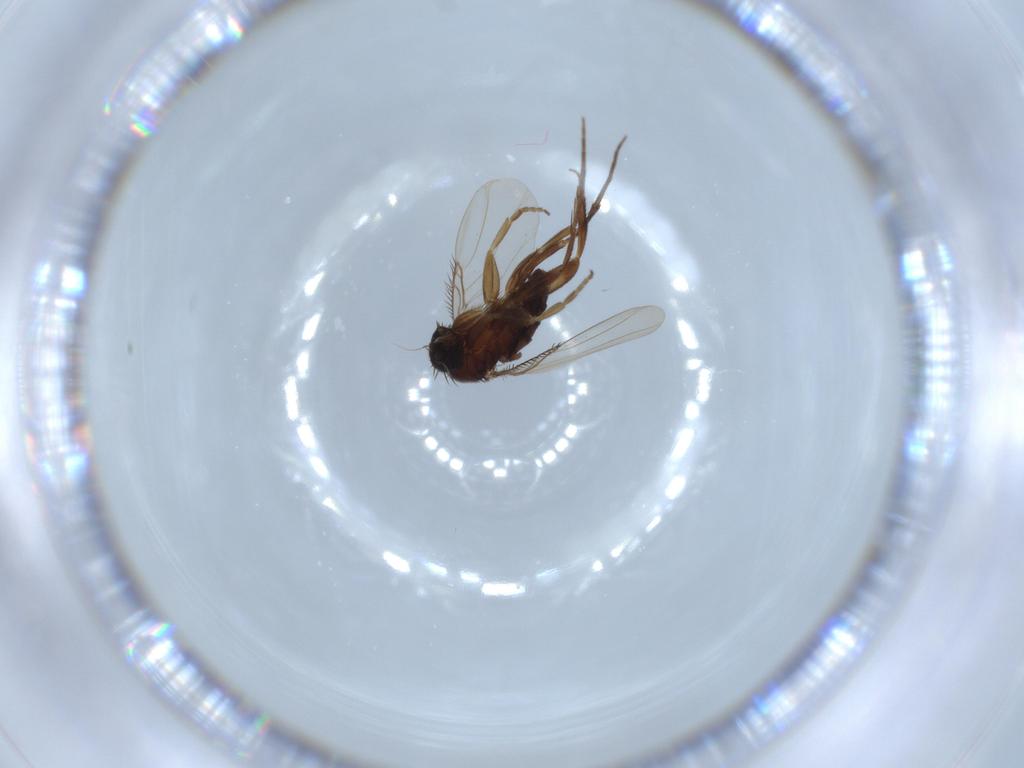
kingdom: Animalia
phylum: Arthropoda
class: Insecta
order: Diptera
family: Phoridae
